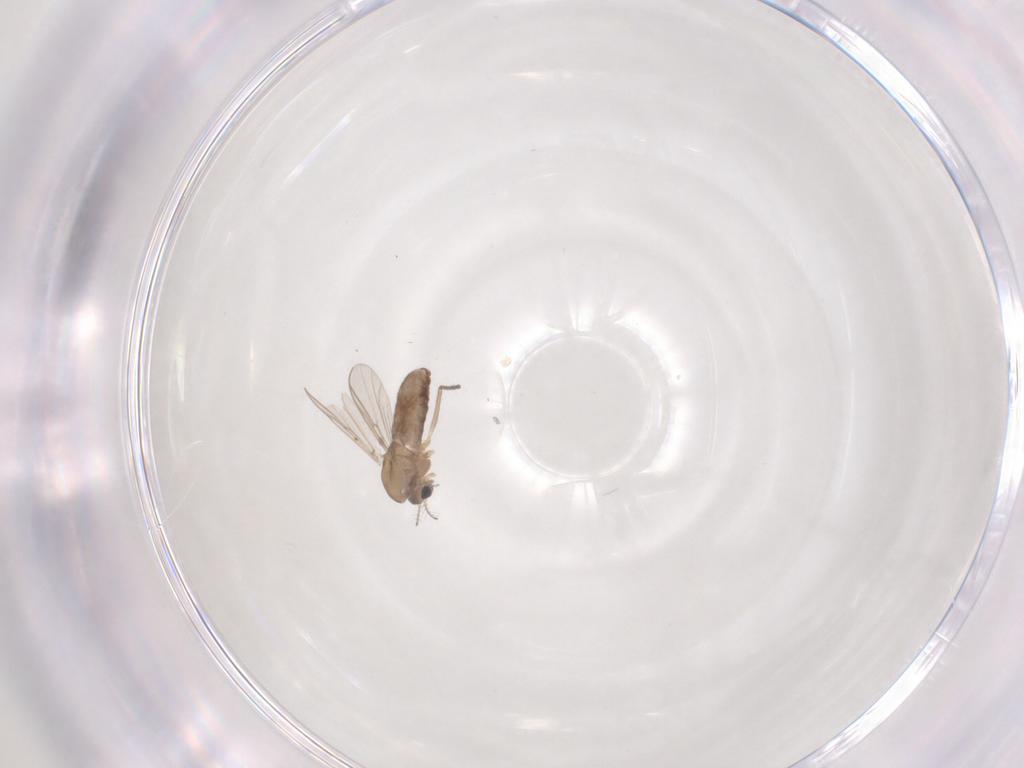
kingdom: Animalia
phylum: Arthropoda
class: Insecta
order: Diptera
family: Chironomidae
